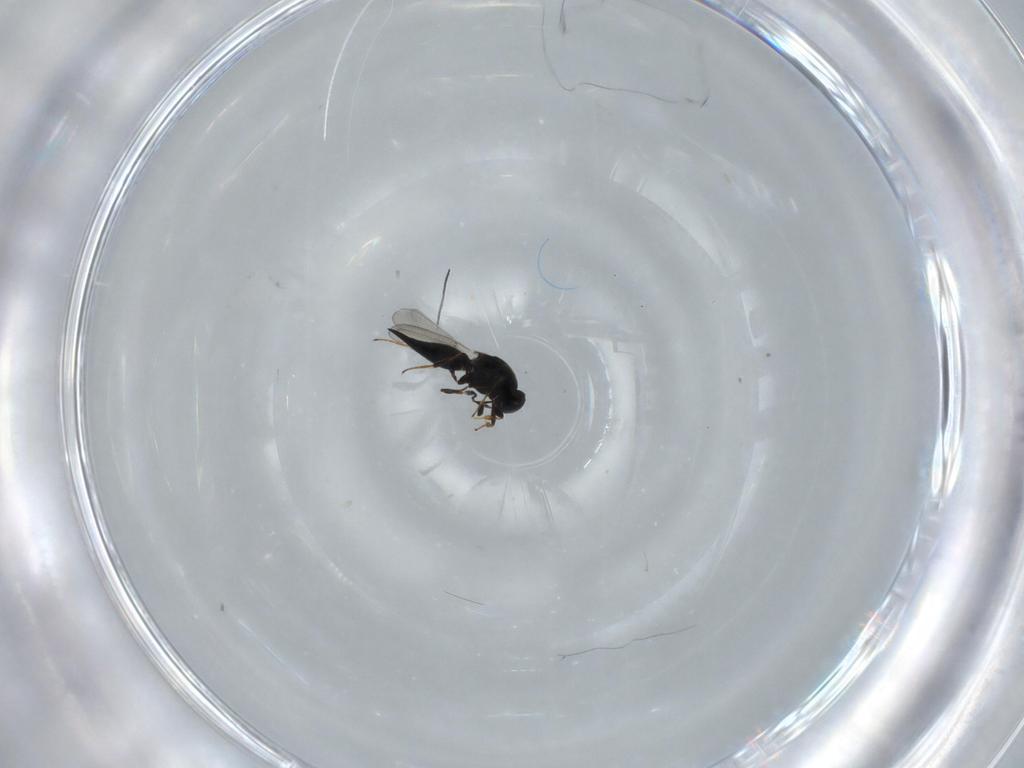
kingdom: Animalia
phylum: Arthropoda
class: Insecta
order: Hymenoptera
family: Platygastridae
